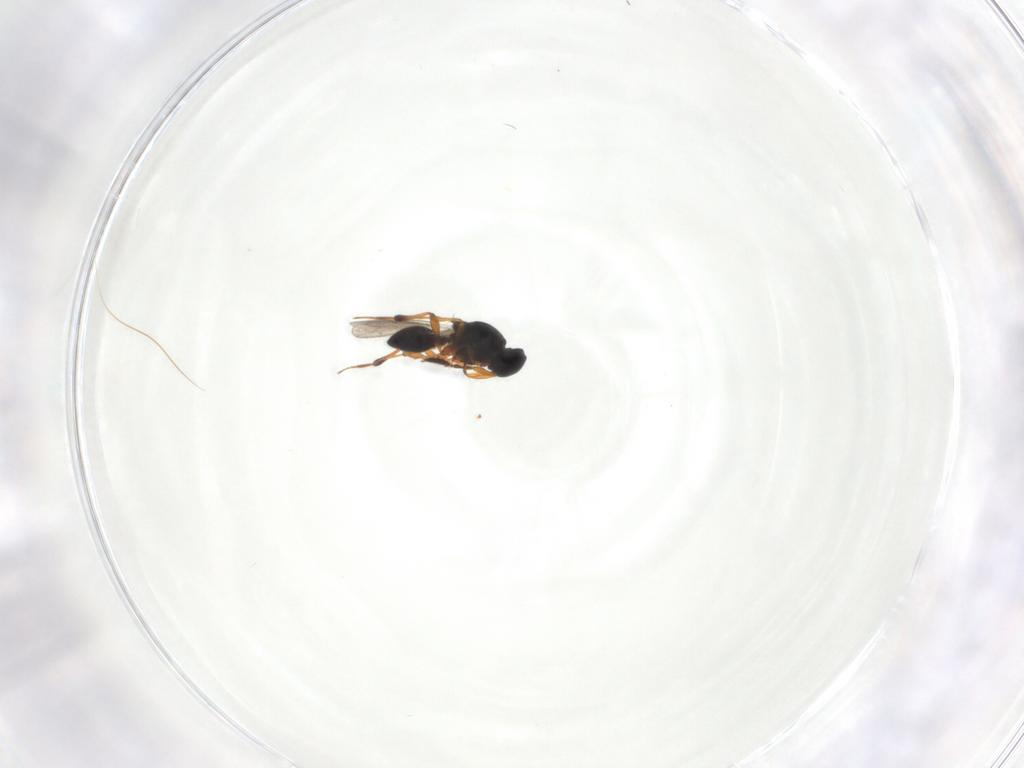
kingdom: Animalia
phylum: Arthropoda
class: Insecta
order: Hymenoptera
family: Platygastridae
